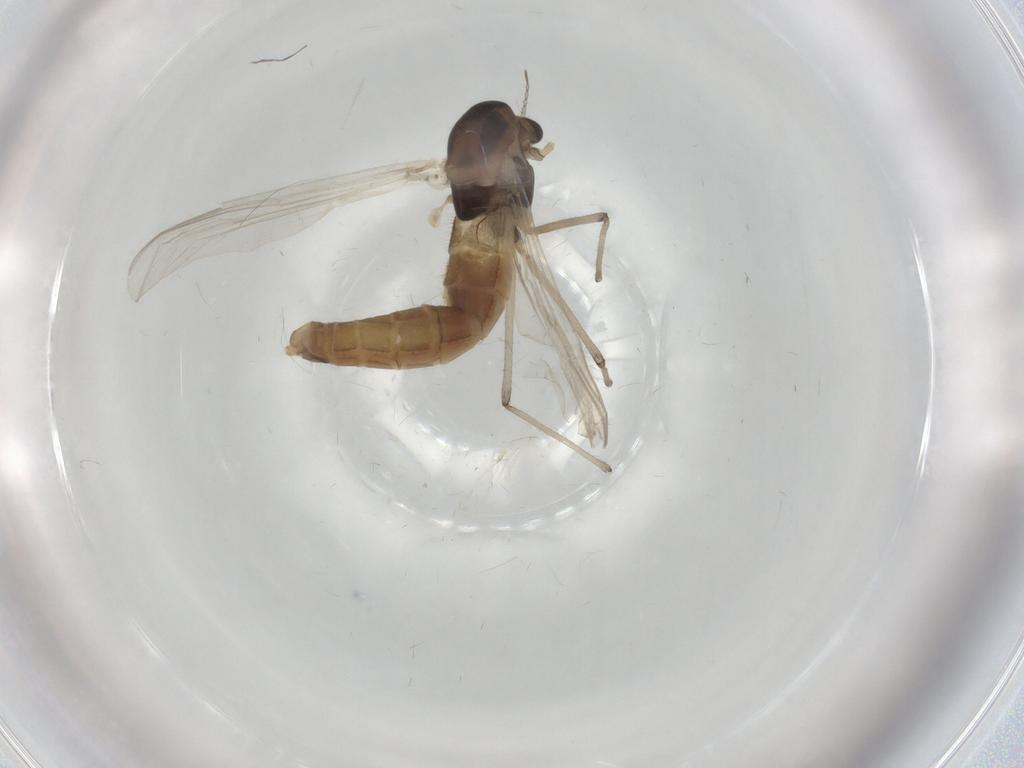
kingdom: Animalia
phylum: Arthropoda
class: Insecta
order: Diptera
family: Chironomidae
